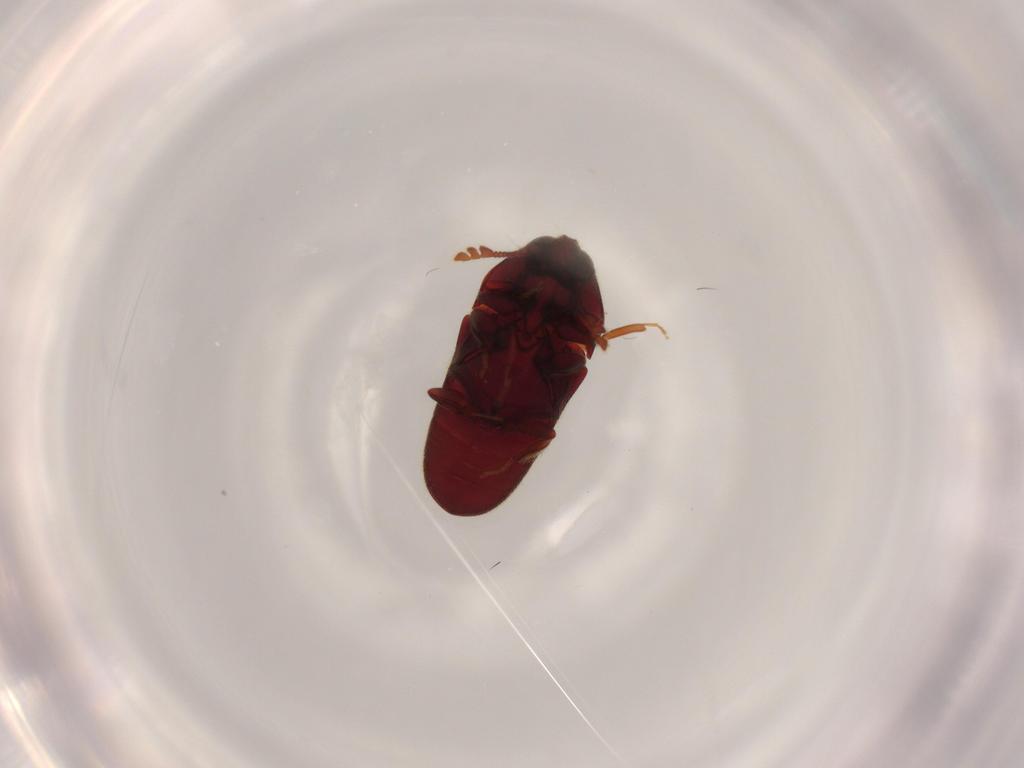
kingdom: Animalia
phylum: Arthropoda
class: Insecta
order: Coleoptera
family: Throscidae
